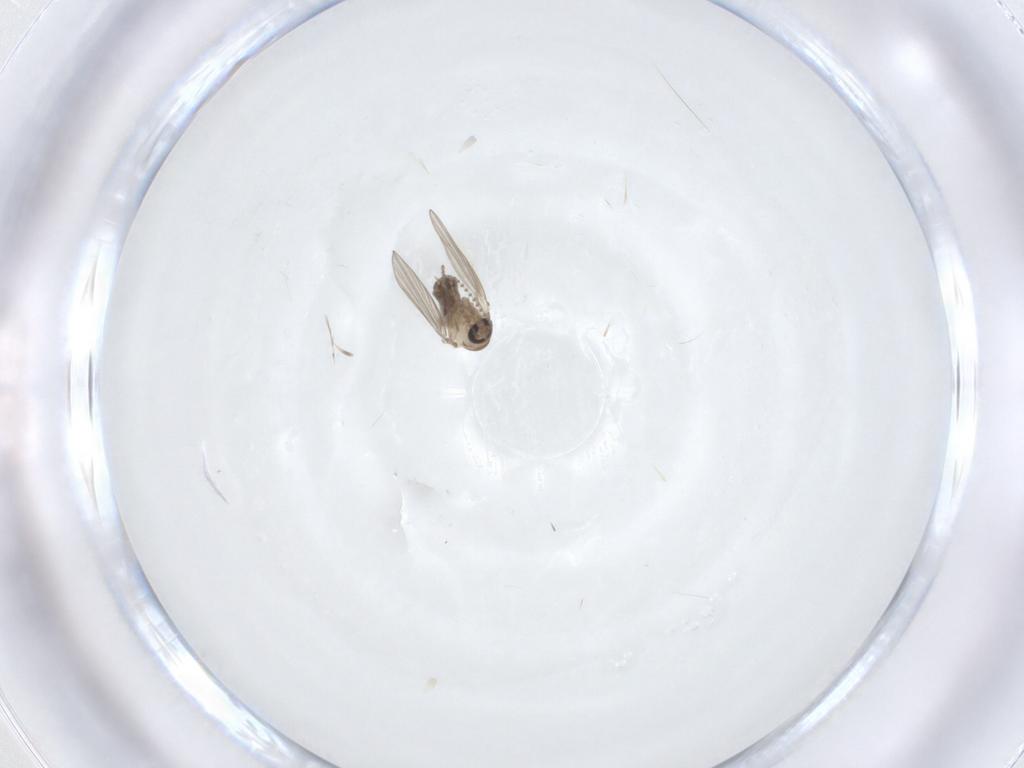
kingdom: Animalia
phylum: Arthropoda
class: Insecta
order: Diptera
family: Psychodidae
